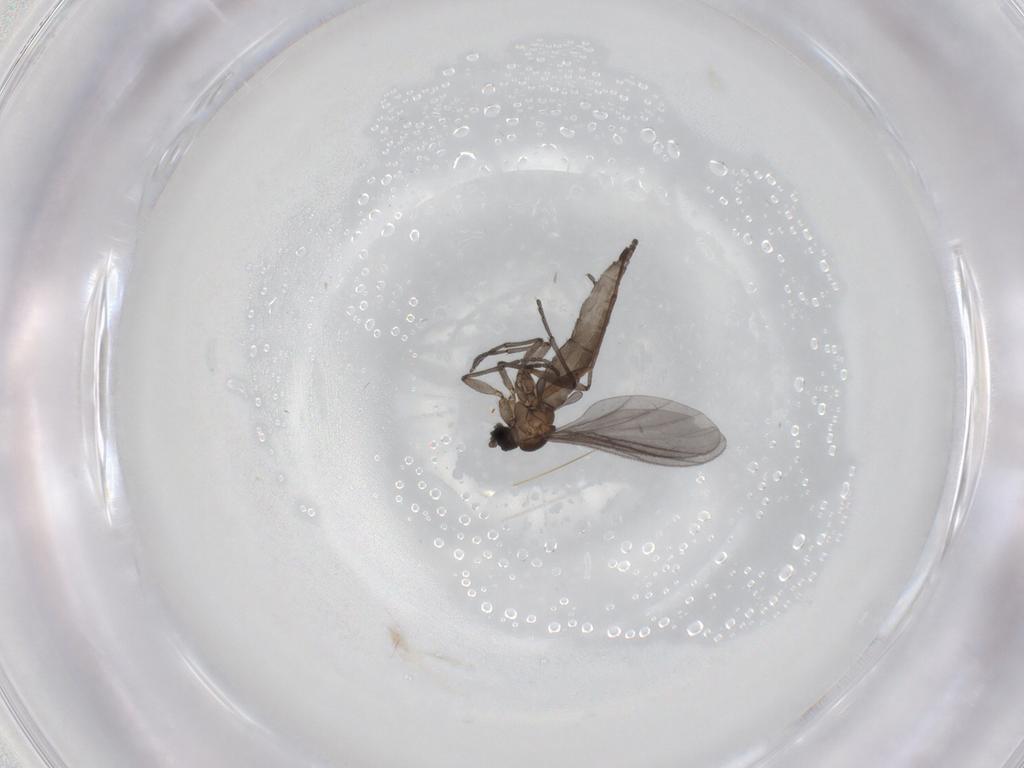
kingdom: Animalia
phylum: Arthropoda
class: Insecta
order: Diptera
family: Sciaridae
